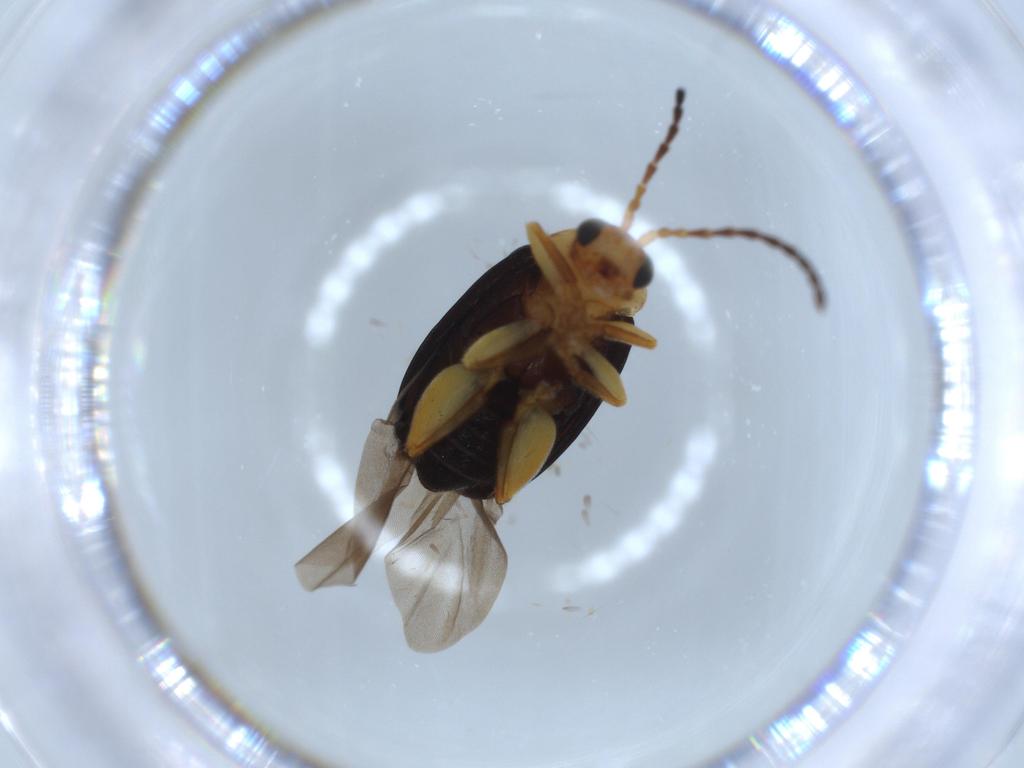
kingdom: Animalia
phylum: Arthropoda
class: Insecta
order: Coleoptera
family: Chrysomelidae
